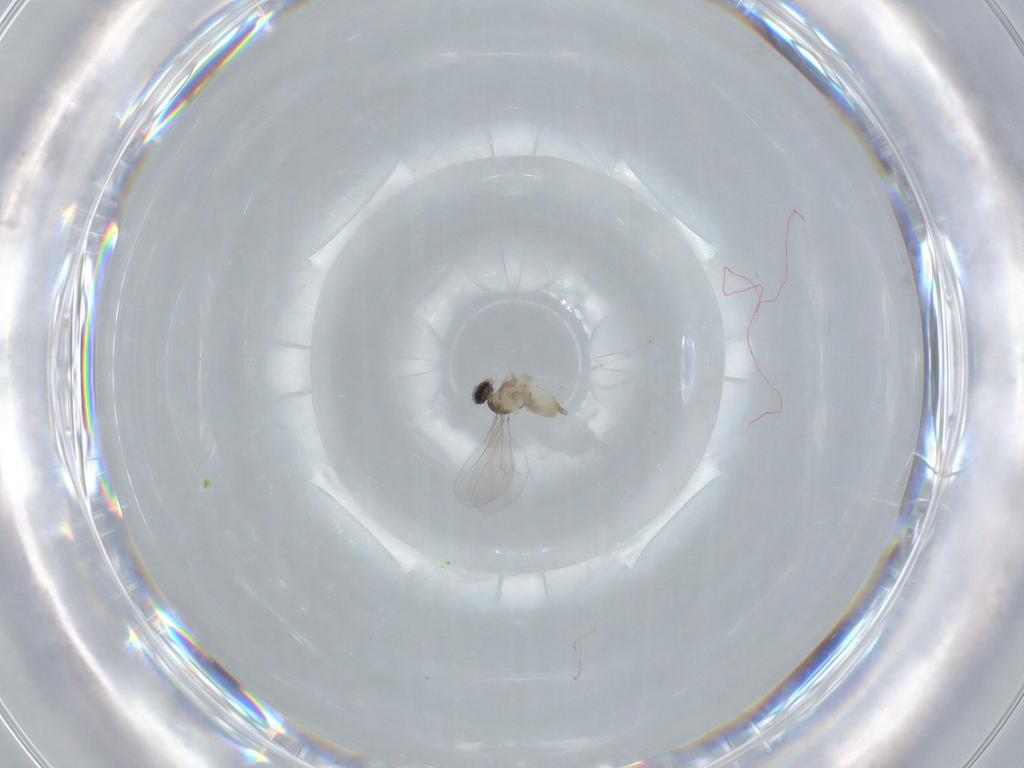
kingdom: Animalia
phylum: Arthropoda
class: Insecta
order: Diptera
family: Cecidomyiidae
